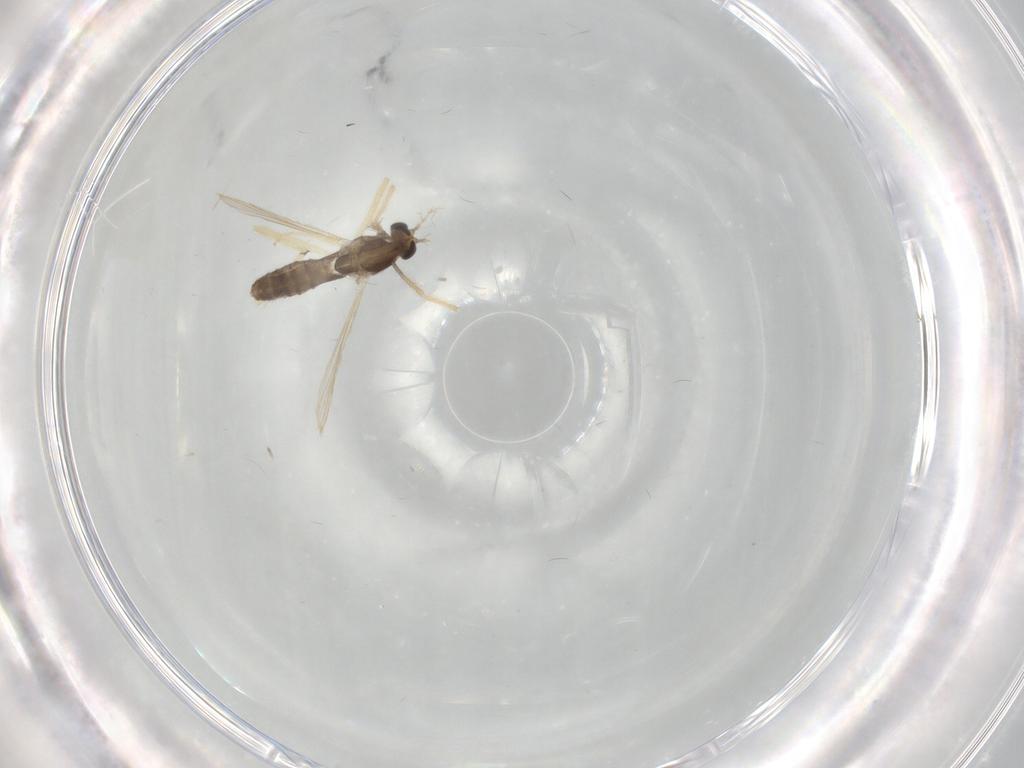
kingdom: Animalia
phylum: Arthropoda
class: Insecta
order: Diptera
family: Chironomidae
